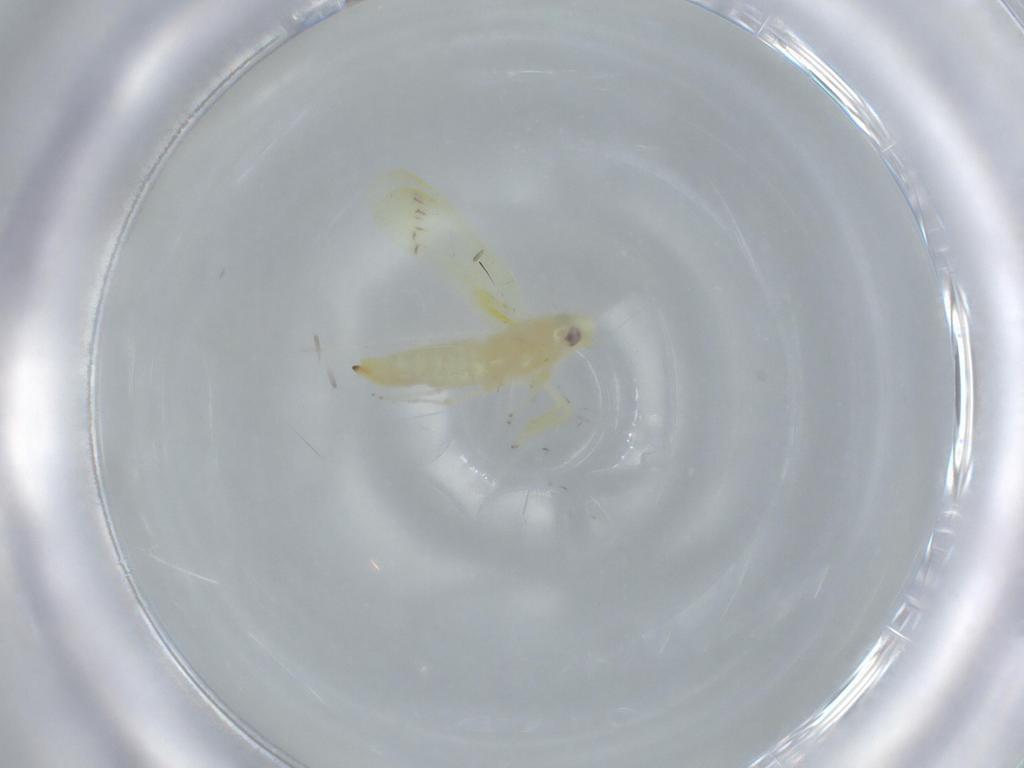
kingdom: Animalia
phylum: Arthropoda
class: Insecta
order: Hemiptera
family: Cicadellidae
